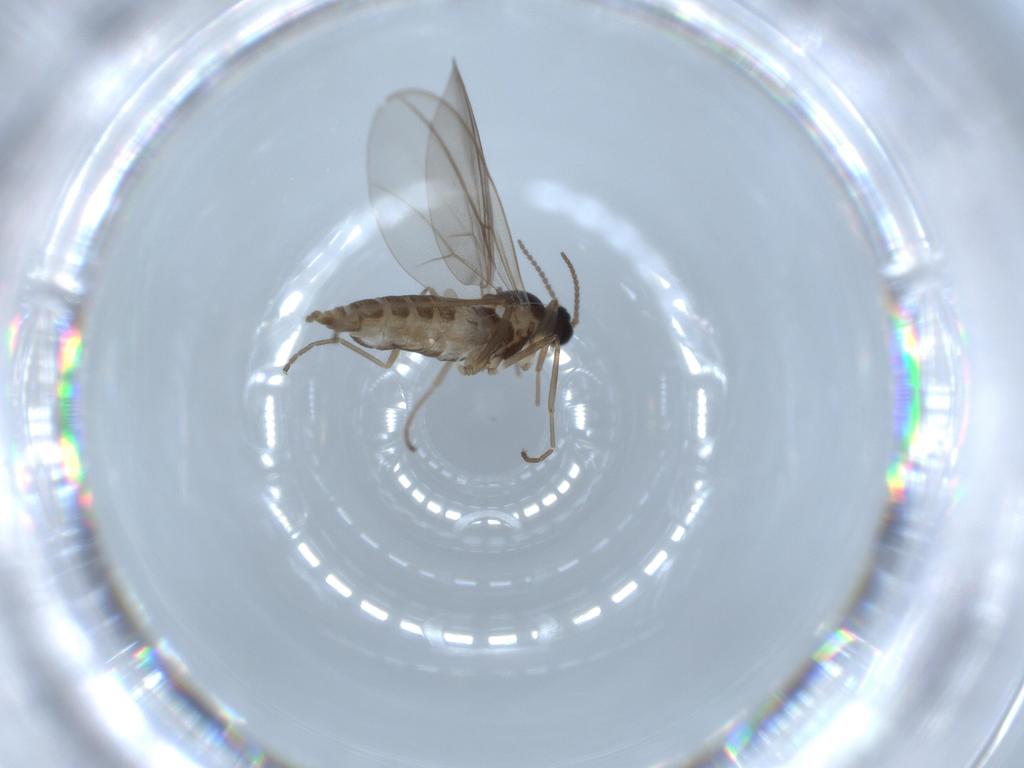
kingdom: Animalia
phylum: Arthropoda
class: Insecta
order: Diptera
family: Cecidomyiidae
